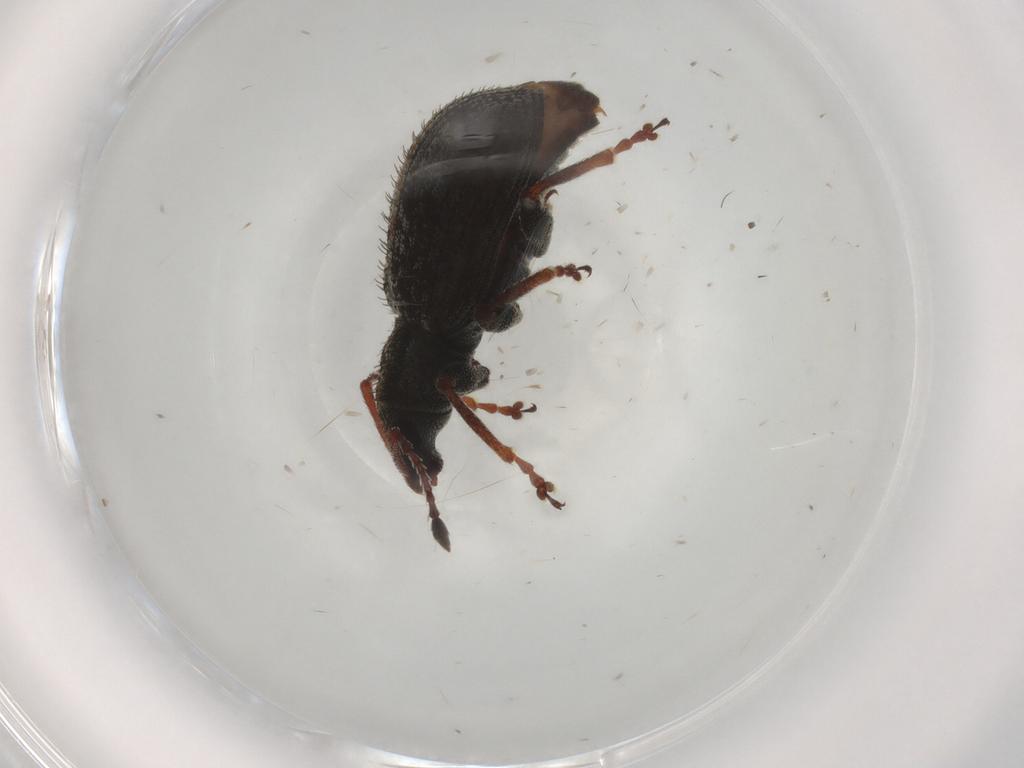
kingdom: Animalia
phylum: Arthropoda
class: Insecta
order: Coleoptera
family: Curculionidae
